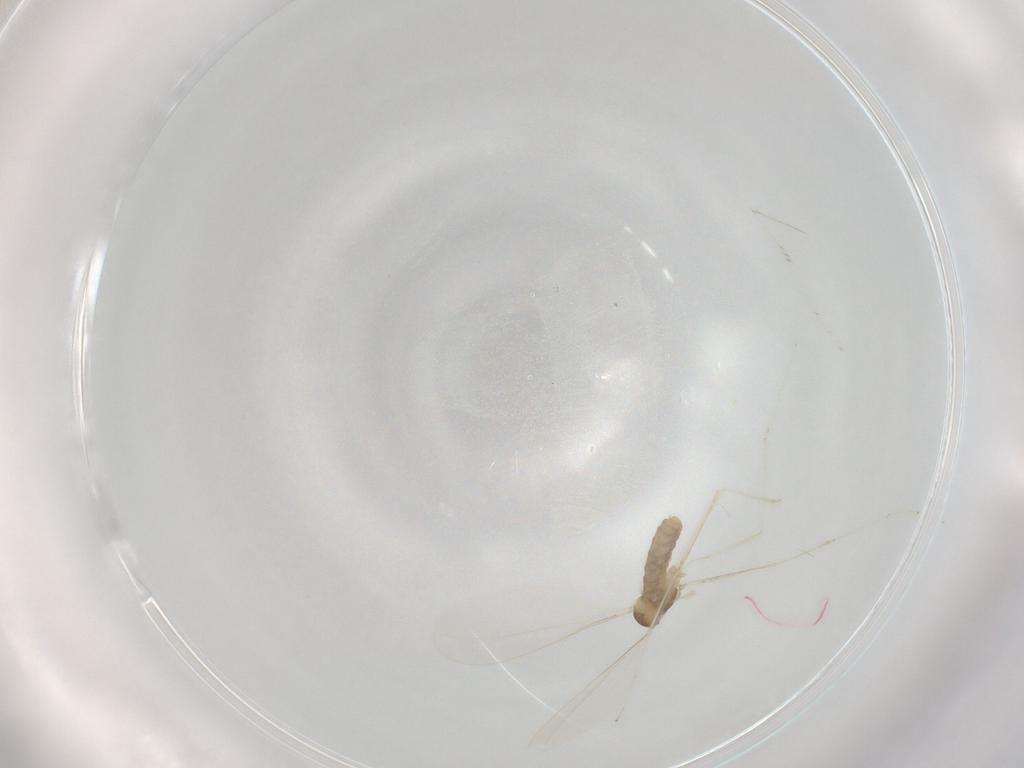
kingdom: Animalia
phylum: Arthropoda
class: Insecta
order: Diptera
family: Cecidomyiidae
